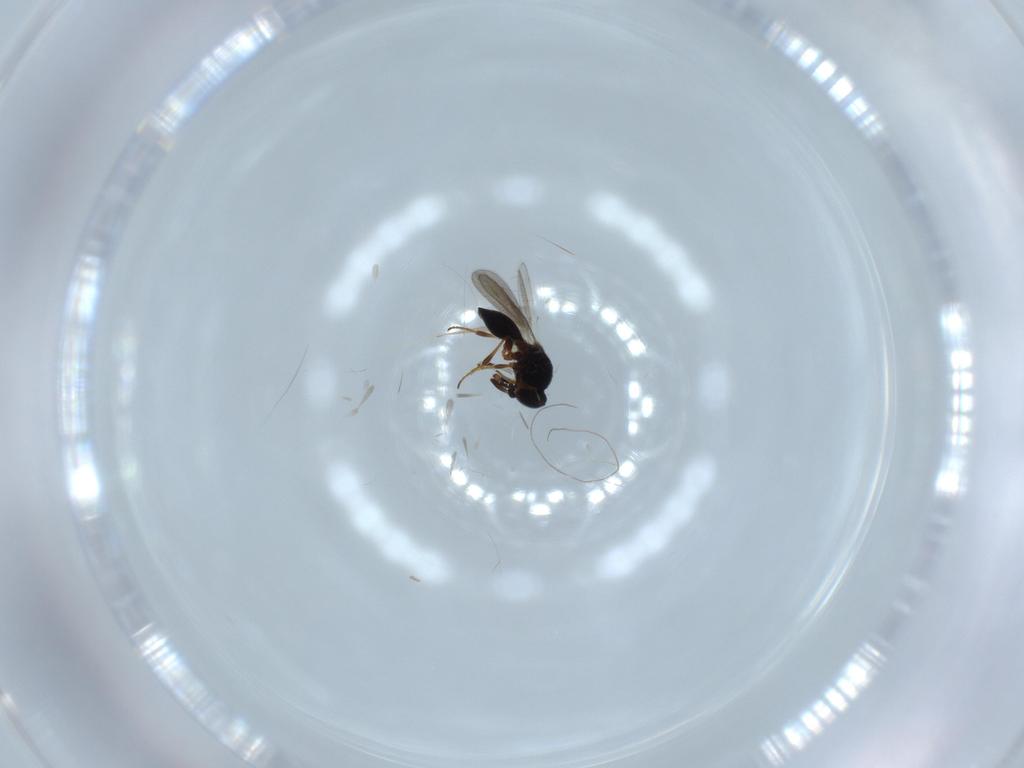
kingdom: Animalia
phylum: Arthropoda
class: Insecta
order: Hymenoptera
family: Platygastridae
